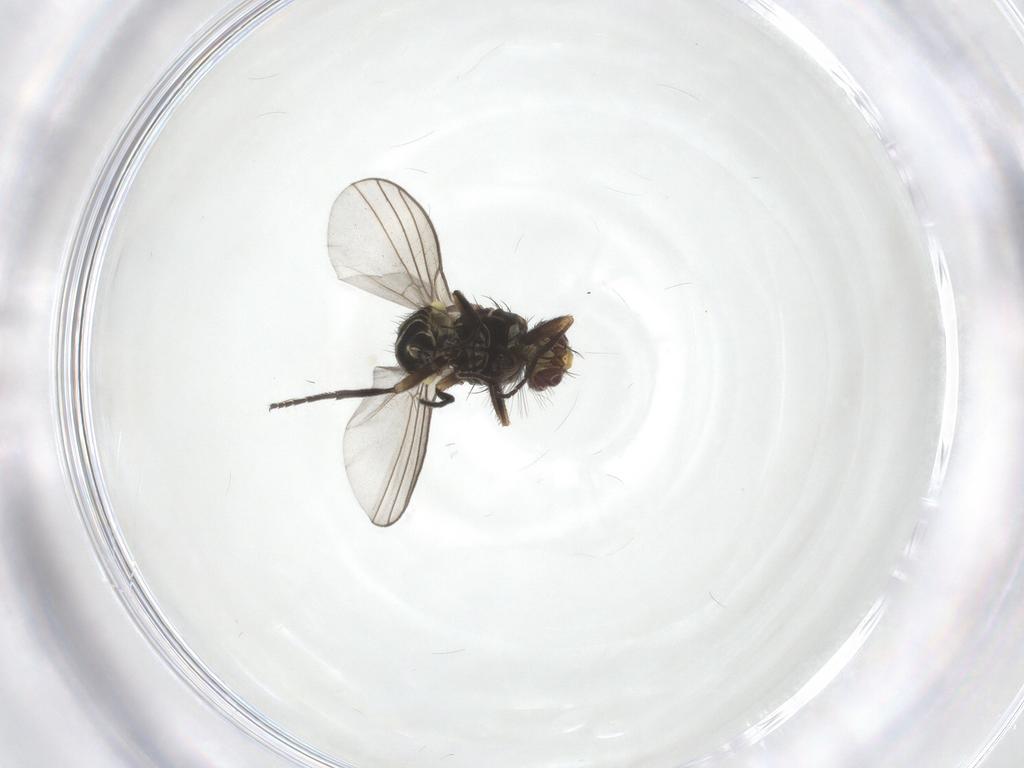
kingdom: Animalia
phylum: Arthropoda
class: Insecta
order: Diptera
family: Agromyzidae
